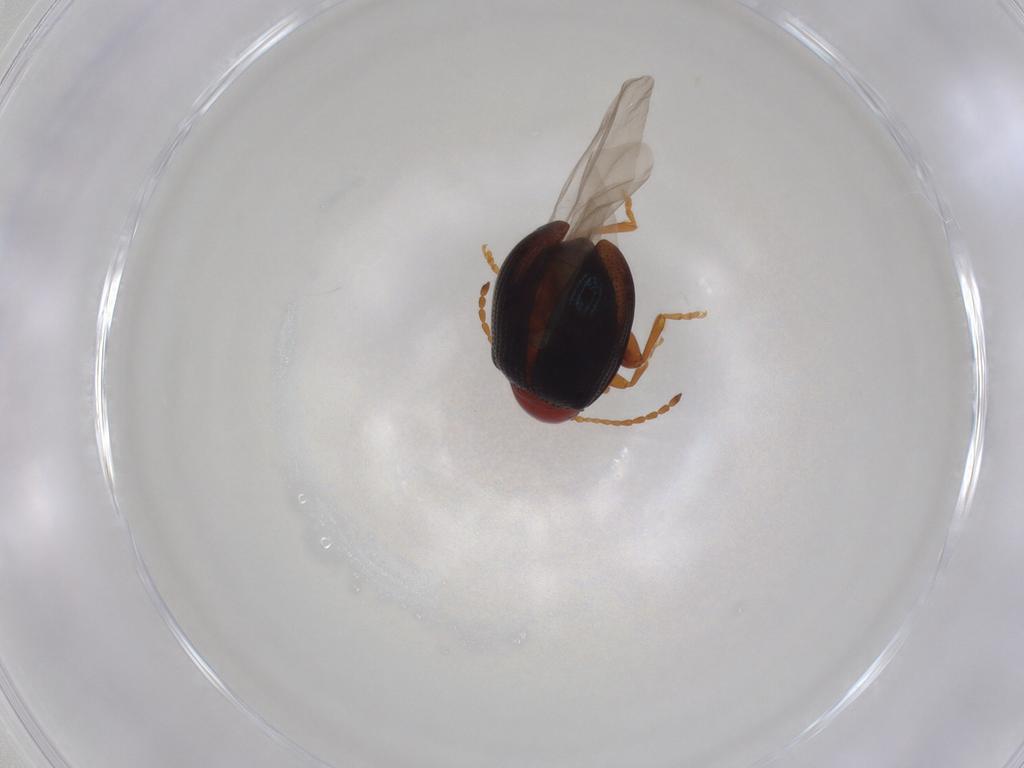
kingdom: Animalia
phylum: Arthropoda
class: Insecta
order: Coleoptera
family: Chrysomelidae
